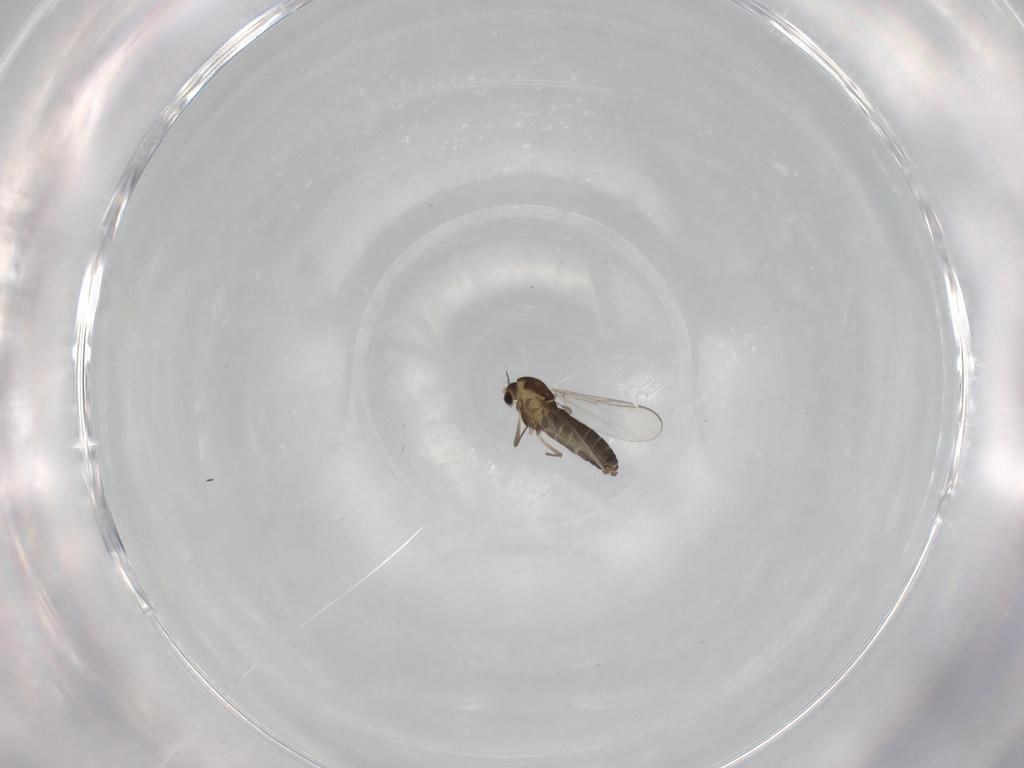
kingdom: Animalia
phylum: Arthropoda
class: Insecta
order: Diptera
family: Chironomidae
